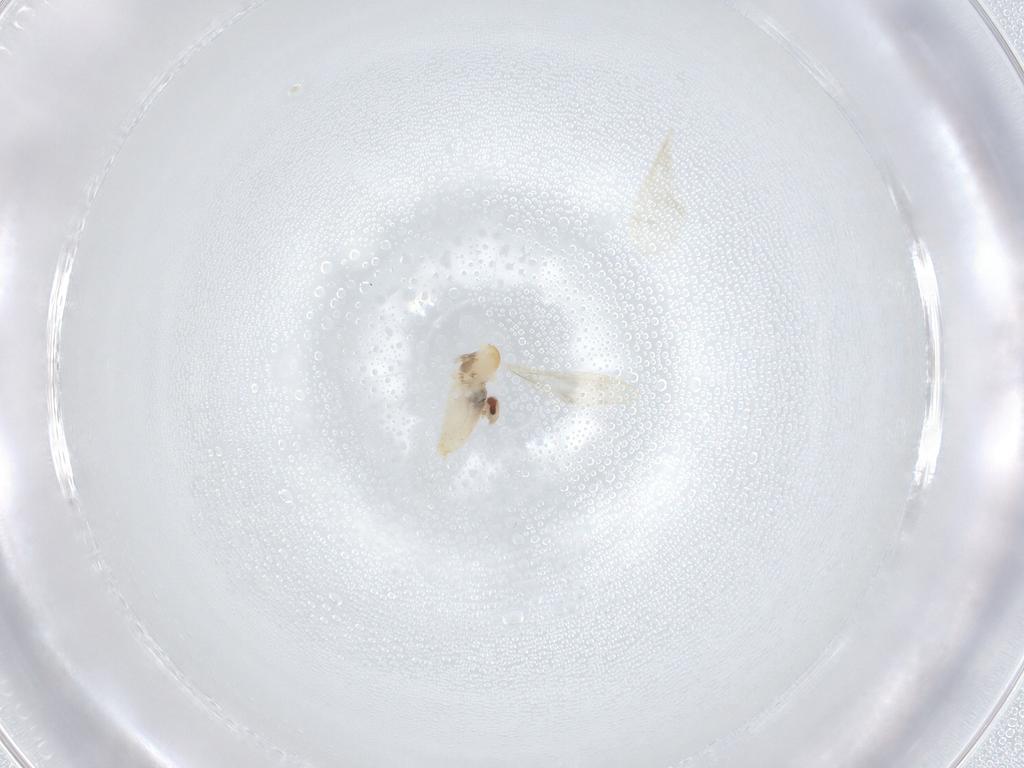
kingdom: Animalia
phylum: Arthropoda
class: Insecta
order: Diptera
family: Cecidomyiidae
